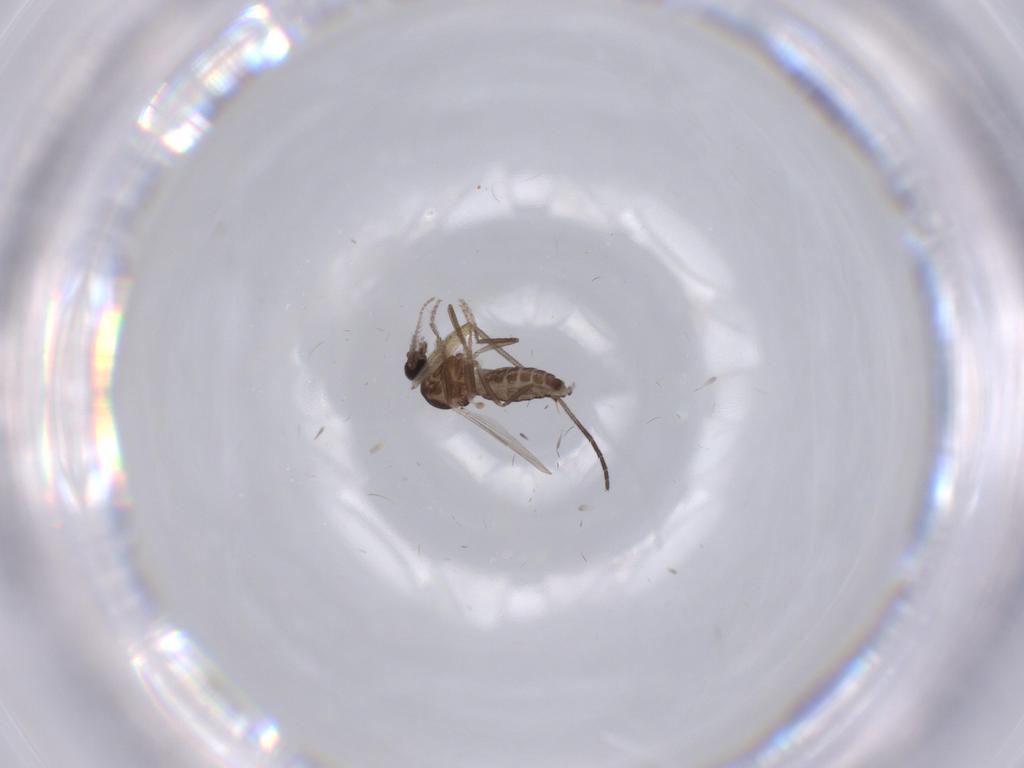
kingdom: Animalia
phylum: Arthropoda
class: Insecta
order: Diptera
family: Ceratopogonidae
